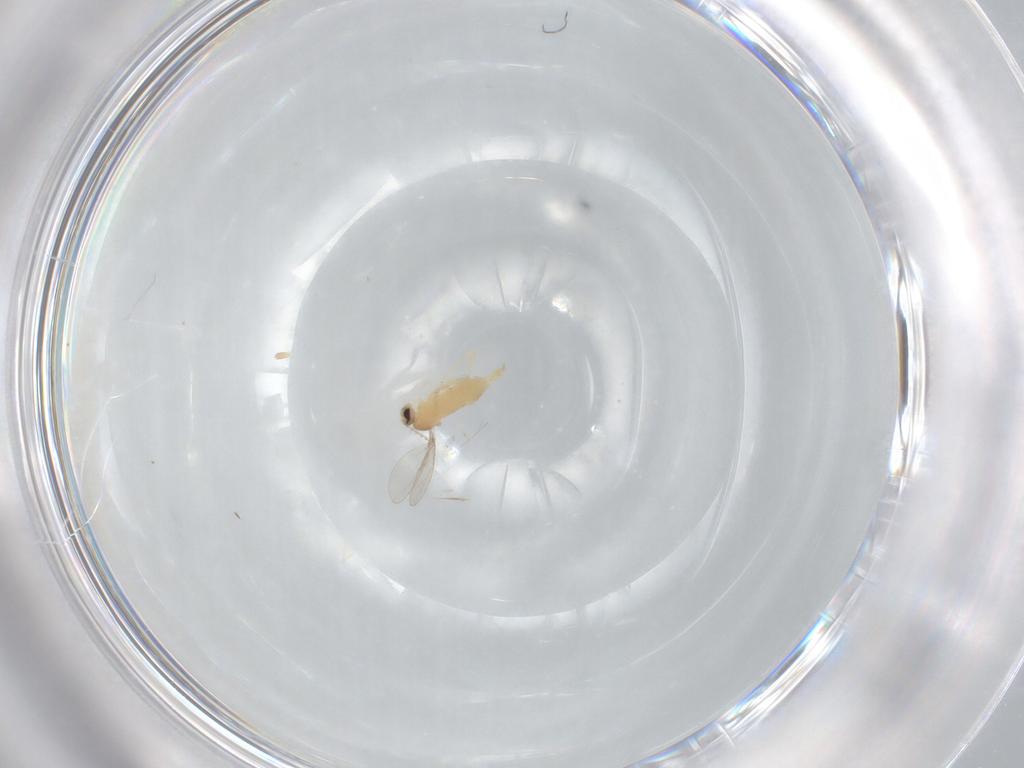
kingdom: Animalia
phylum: Arthropoda
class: Insecta
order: Diptera
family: Cecidomyiidae
